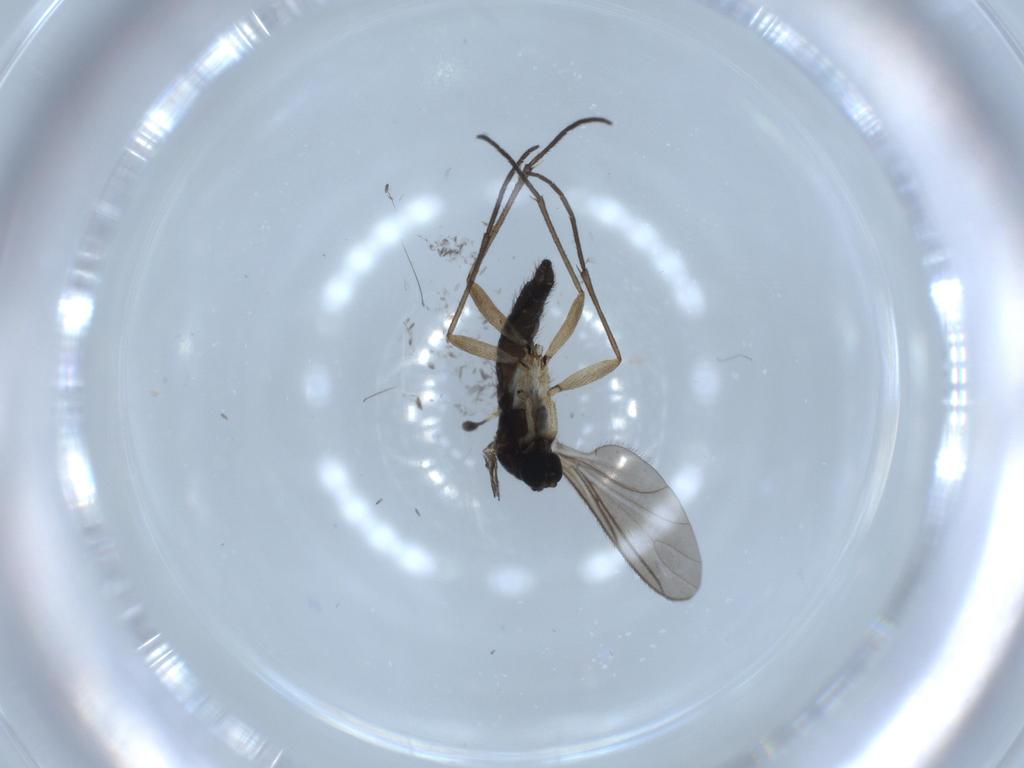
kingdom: Animalia
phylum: Arthropoda
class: Insecta
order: Diptera
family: Sciaridae
